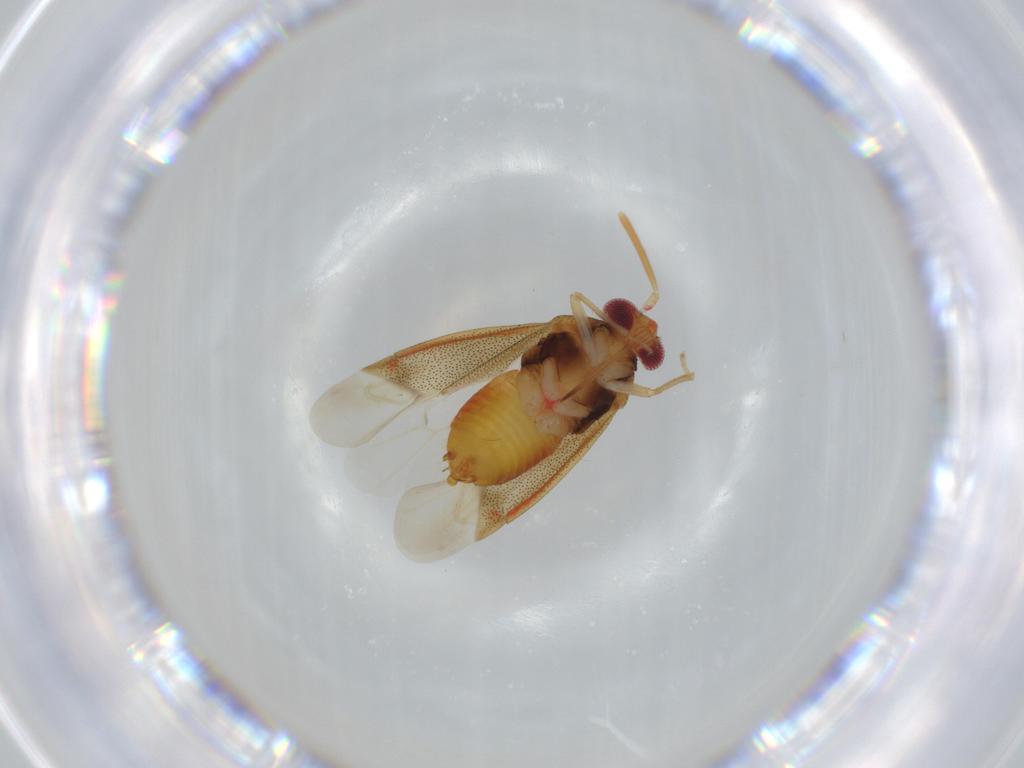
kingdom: Animalia
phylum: Arthropoda
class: Insecta
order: Hemiptera
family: Miridae
